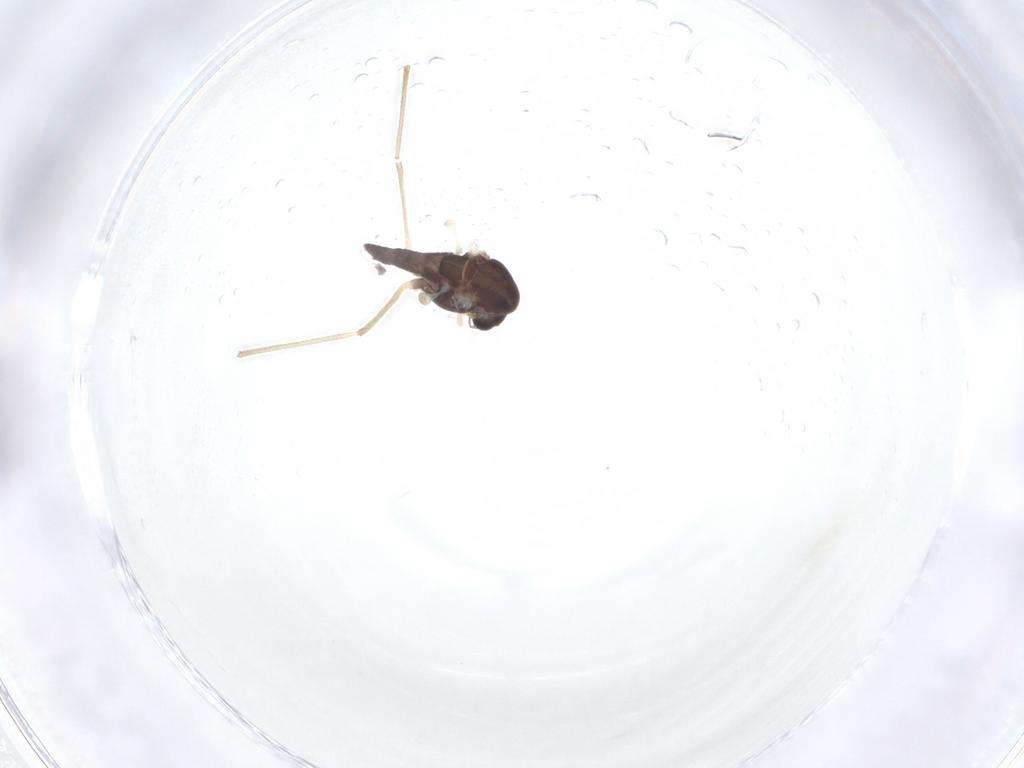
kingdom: Animalia
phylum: Arthropoda
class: Insecta
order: Diptera
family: Chironomidae
